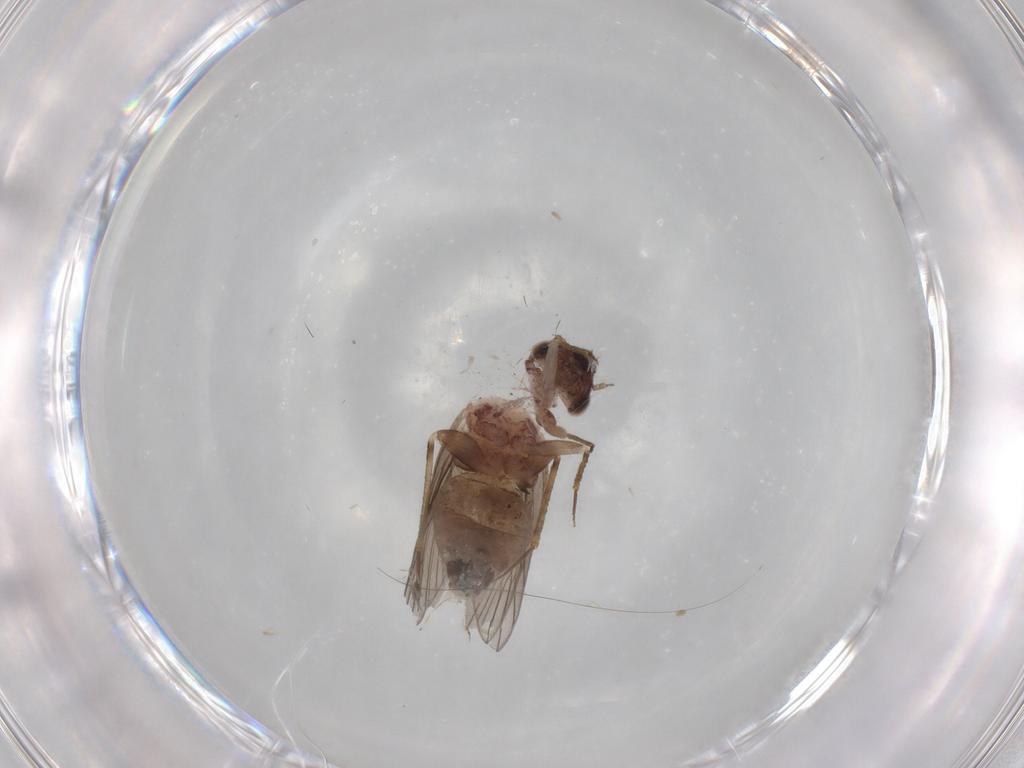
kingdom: Animalia
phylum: Arthropoda
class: Insecta
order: Psocodea
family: Lepidopsocidae
